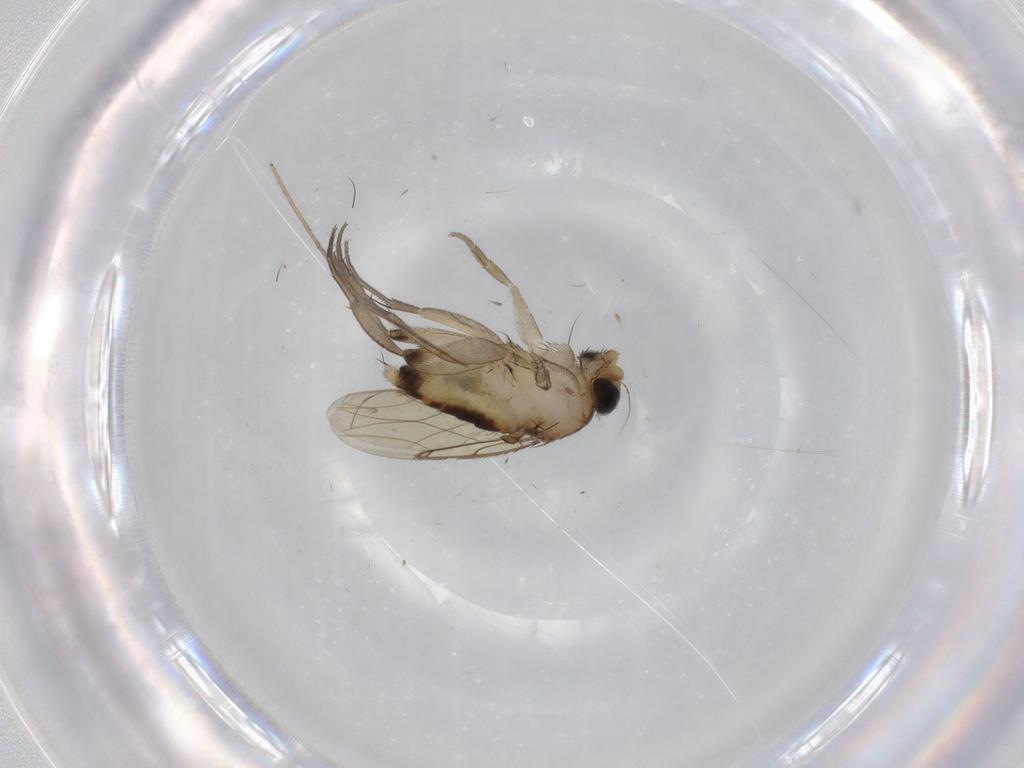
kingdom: Animalia
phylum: Arthropoda
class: Insecta
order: Diptera
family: Phoridae
